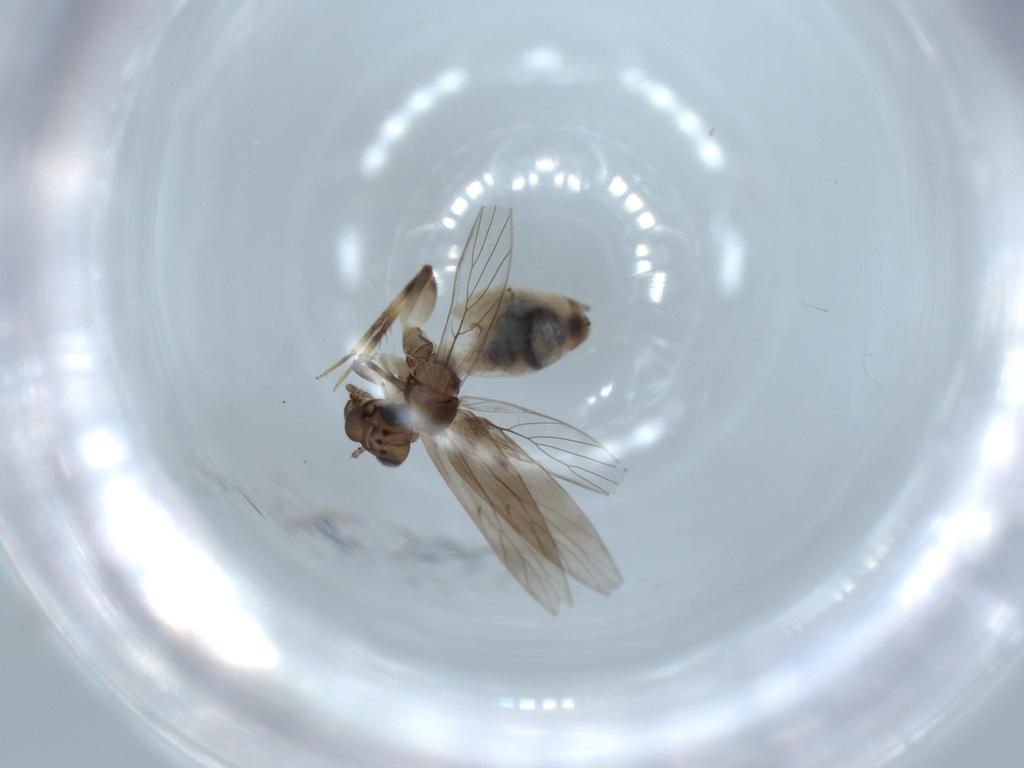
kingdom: Animalia
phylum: Arthropoda
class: Insecta
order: Psocodea
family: Lepidopsocidae
